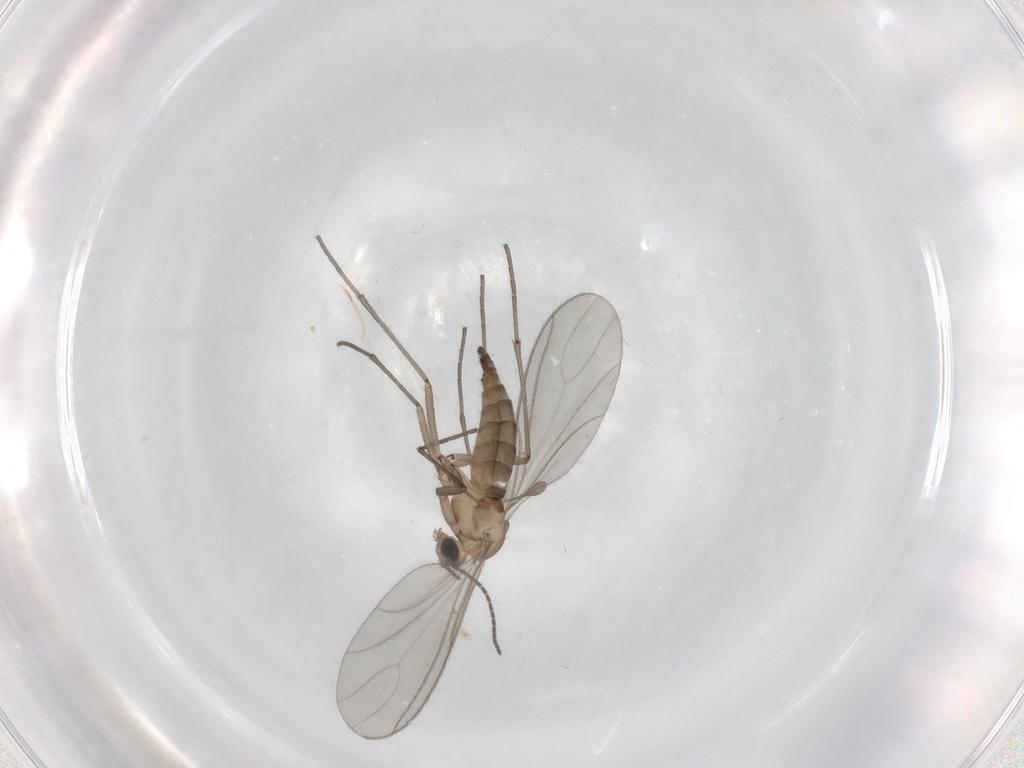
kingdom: Animalia
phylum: Arthropoda
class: Insecta
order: Diptera
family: Sciaridae
